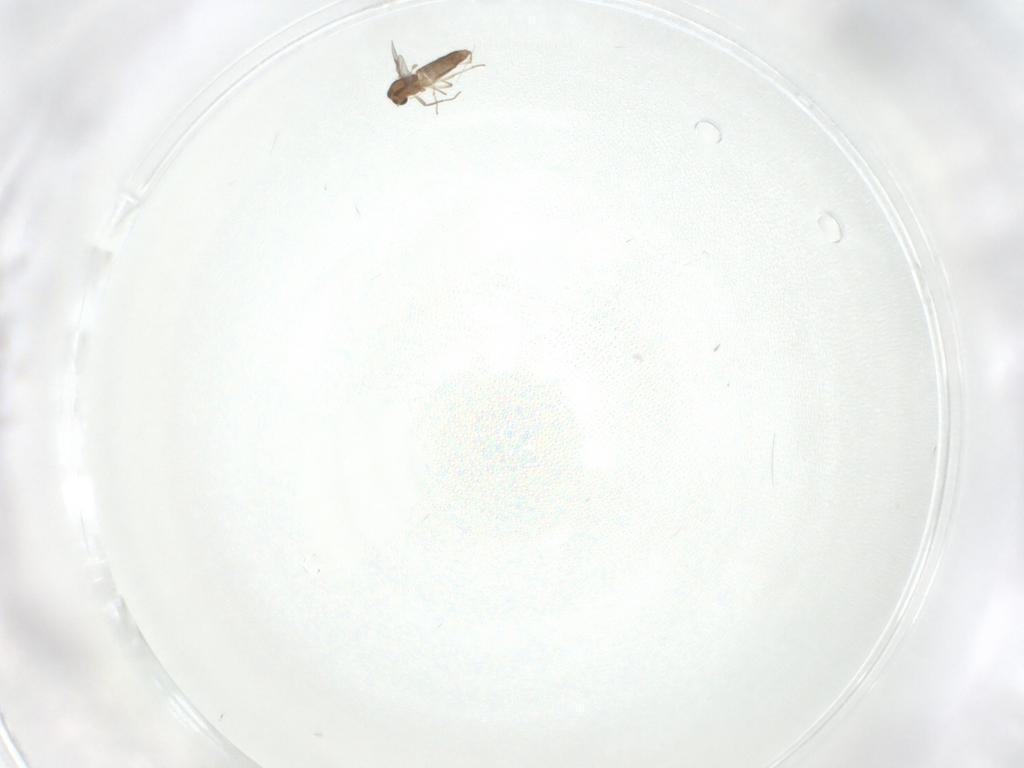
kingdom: Animalia
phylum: Arthropoda
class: Insecta
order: Diptera
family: Chironomidae
